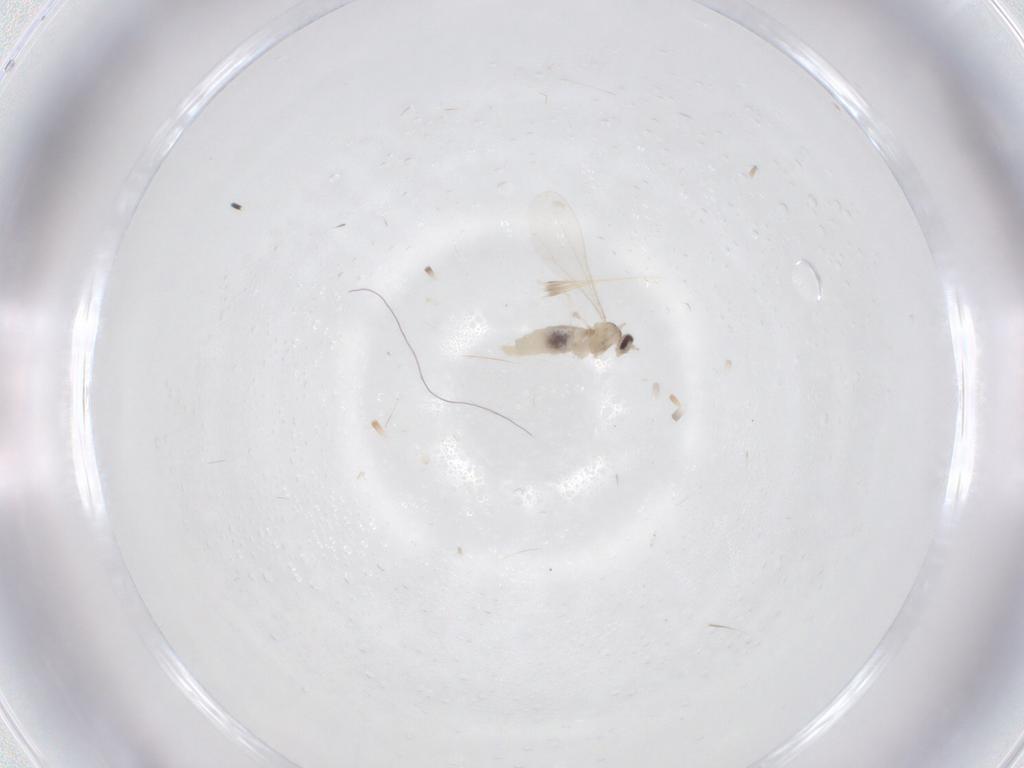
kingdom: Animalia
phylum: Arthropoda
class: Insecta
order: Diptera
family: Cecidomyiidae
